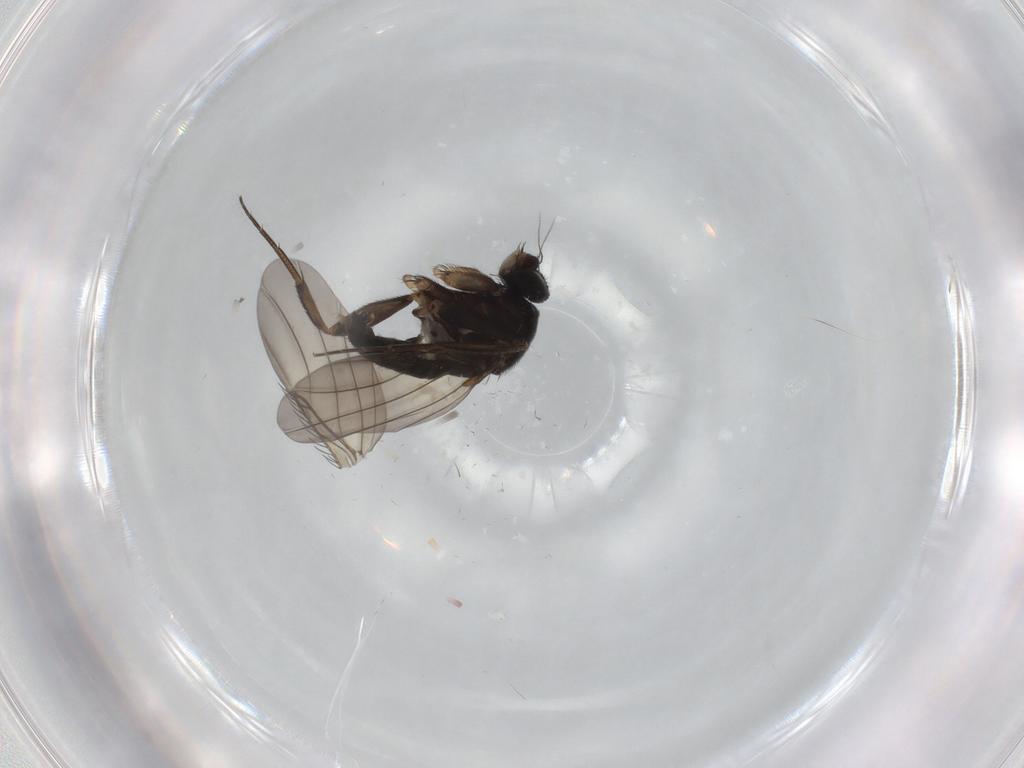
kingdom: Animalia
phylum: Arthropoda
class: Insecta
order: Diptera
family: Phoridae
